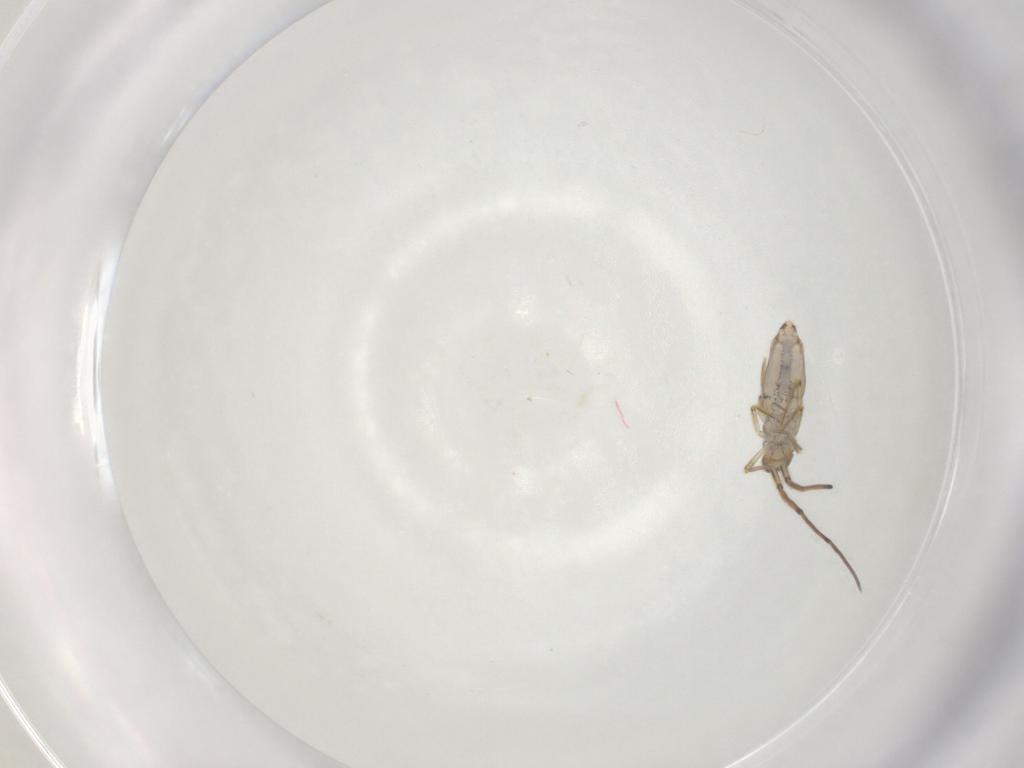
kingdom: Animalia
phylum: Arthropoda
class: Collembola
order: Entomobryomorpha
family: Paronellidae
